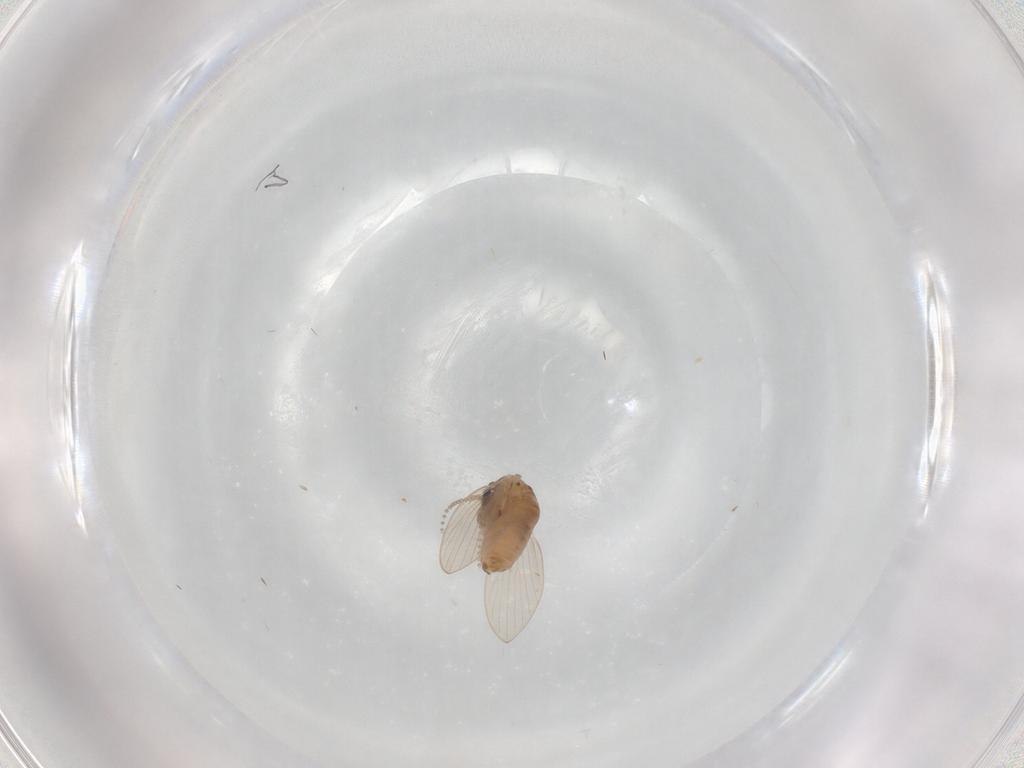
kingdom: Animalia
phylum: Arthropoda
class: Insecta
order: Diptera
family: Psychodidae
